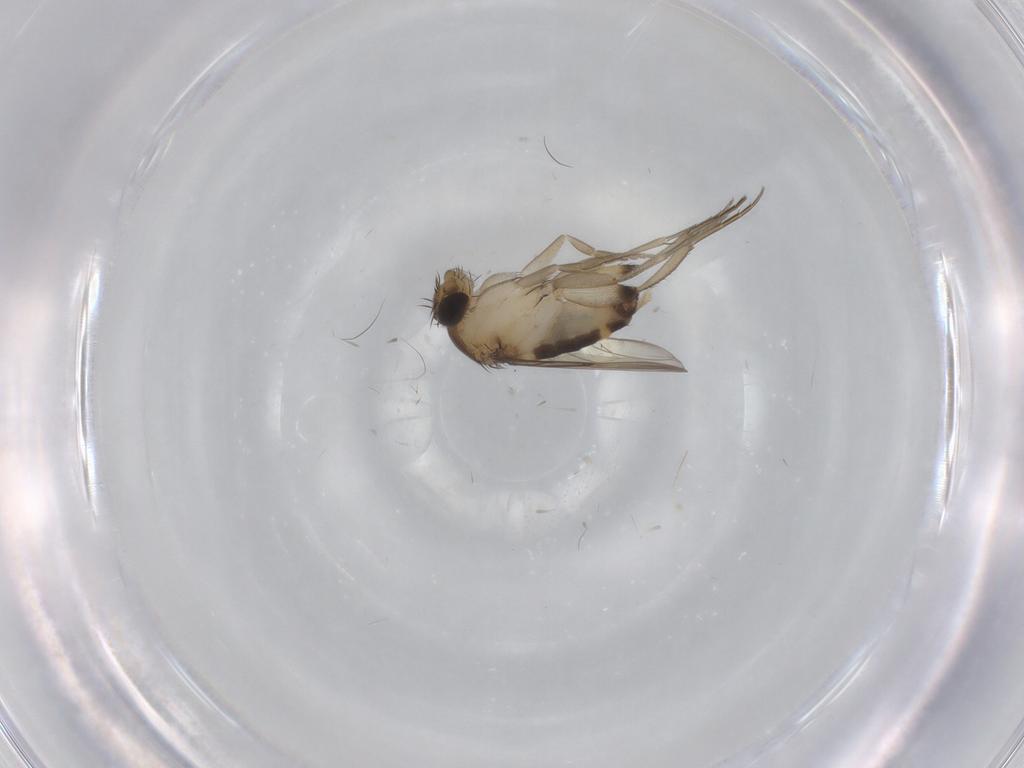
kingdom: Animalia
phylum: Arthropoda
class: Insecta
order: Diptera
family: Phoridae
